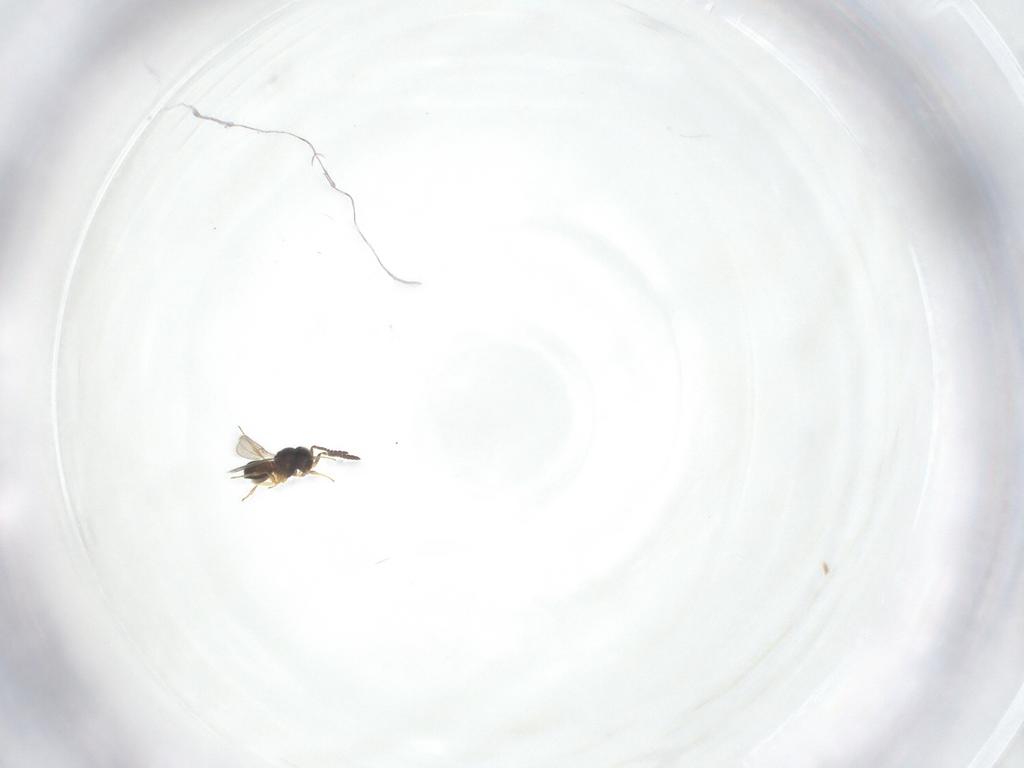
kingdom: Animalia
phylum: Arthropoda
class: Insecta
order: Hymenoptera
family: Scelionidae
